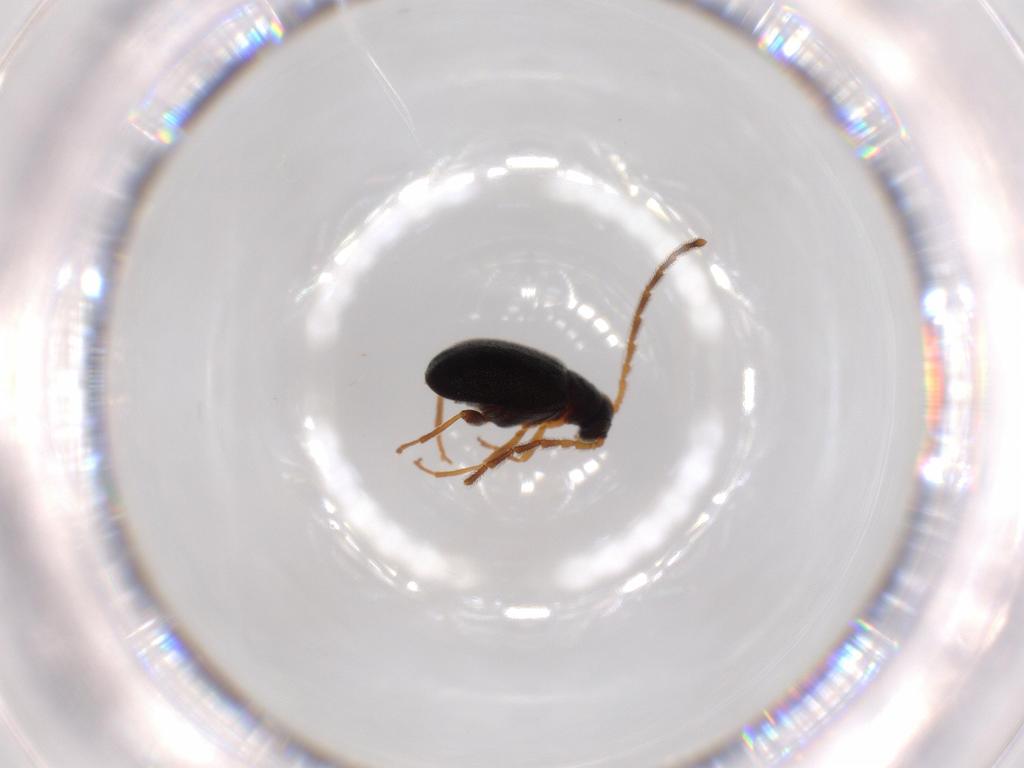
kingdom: Animalia
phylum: Arthropoda
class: Insecta
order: Coleoptera
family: Aderidae
